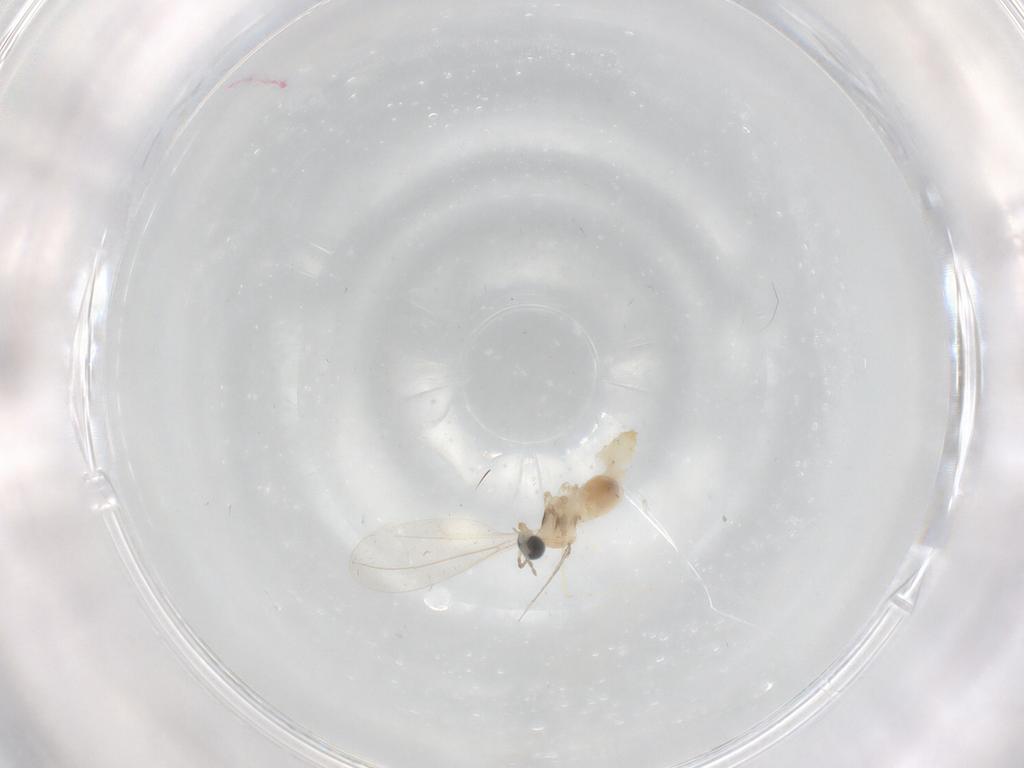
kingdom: Animalia
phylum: Arthropoda
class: Insecta
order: Diptera
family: Cecidomyiidae
